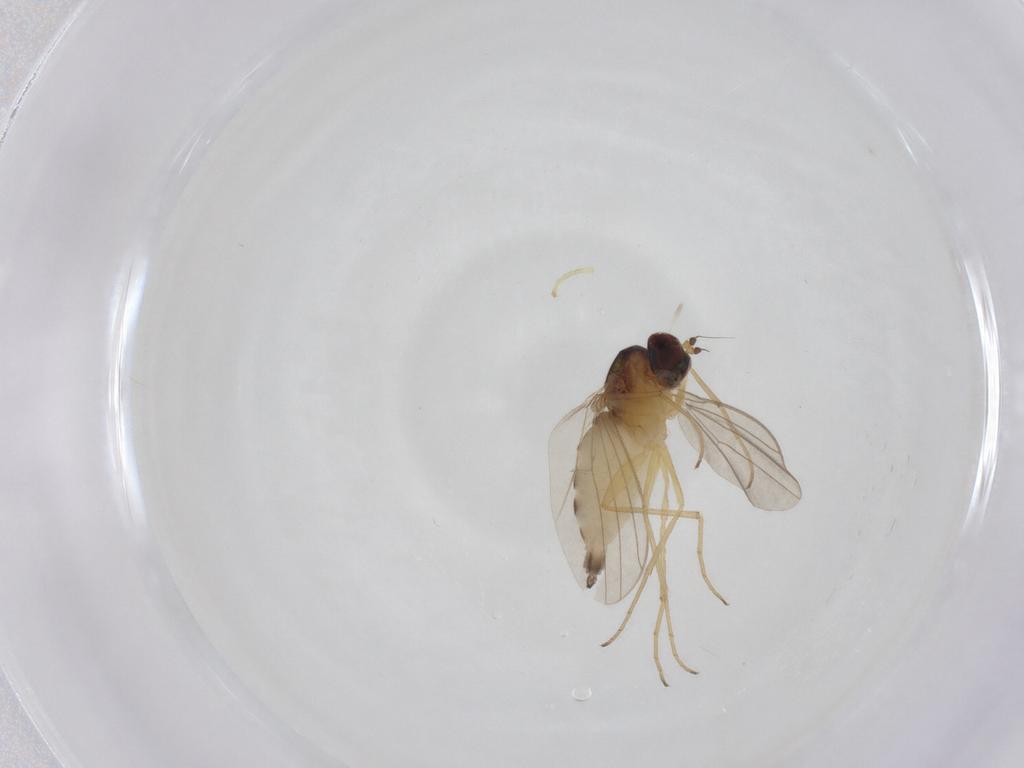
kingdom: Animalia
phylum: Arthropoda
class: Insecta
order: Diptera
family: Dolichopodidae
